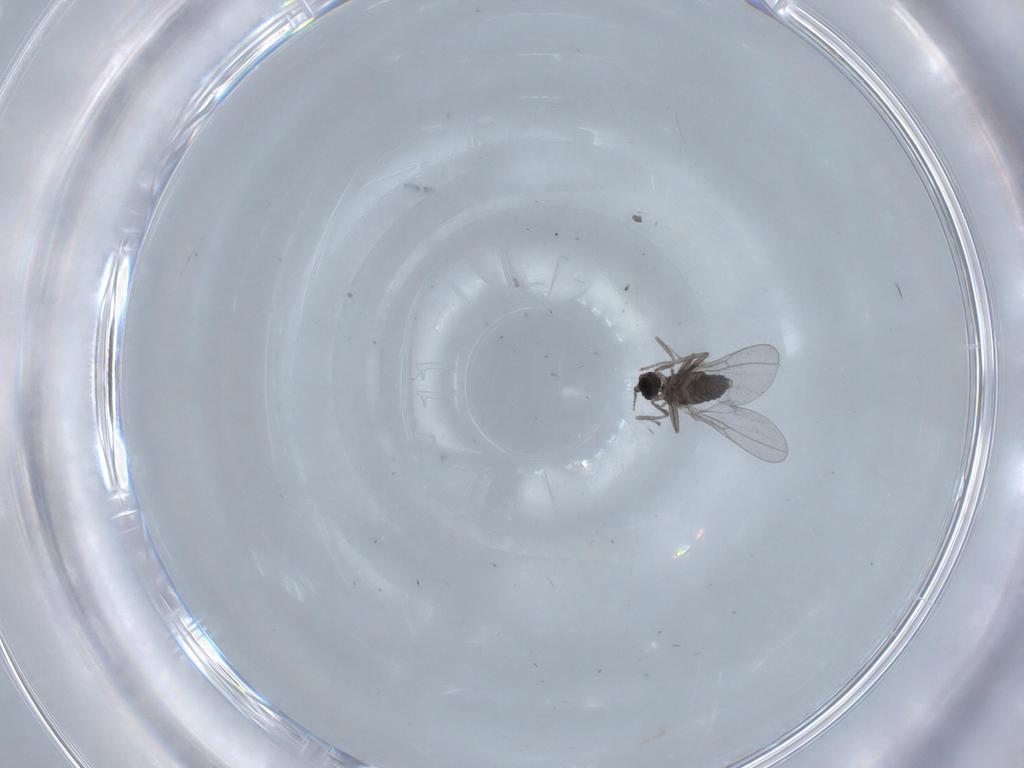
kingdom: Animalia
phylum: Arthropoda
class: Insecta
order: Diptera
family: Cecidomyiidae
